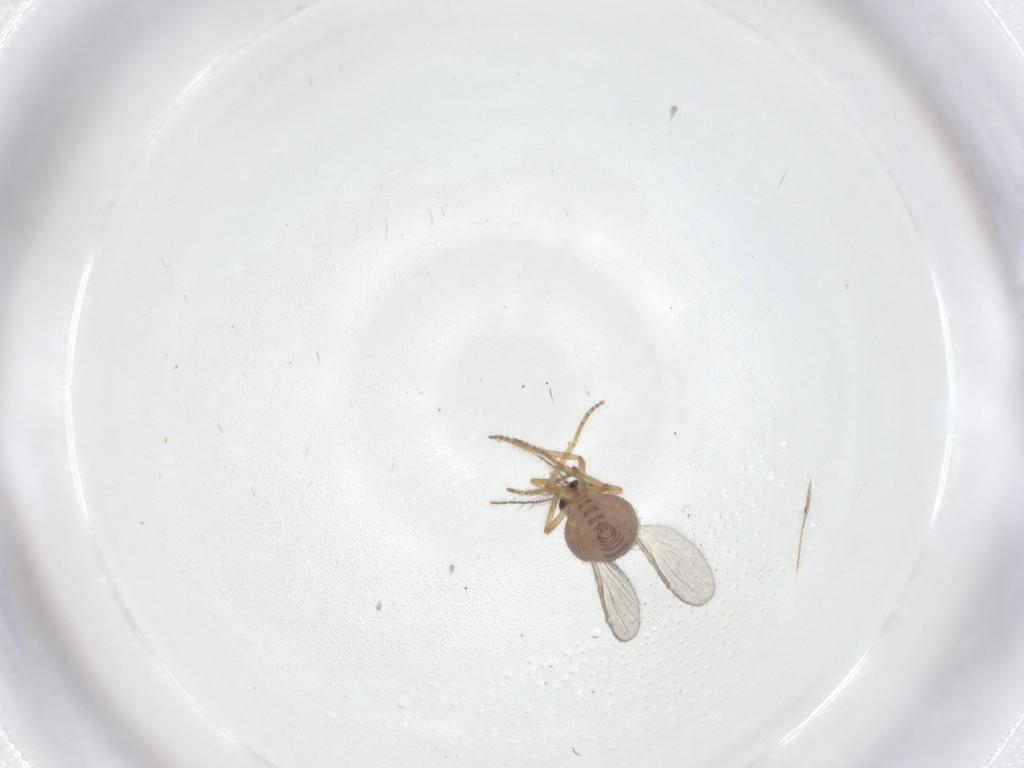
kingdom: Animalia
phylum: Arthropoda
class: Insecta
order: Diptera
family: Ceratopogonidae
